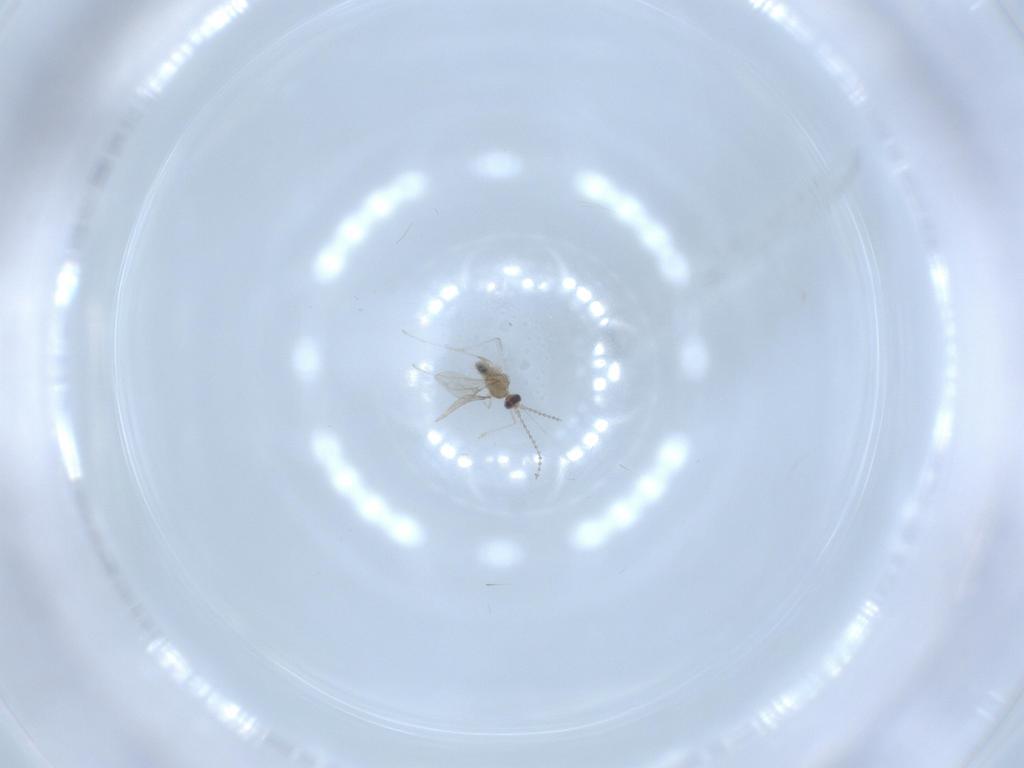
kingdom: Animalia
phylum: Arthropoda
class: Insecta
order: Diptera
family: Cecidomyiidae
